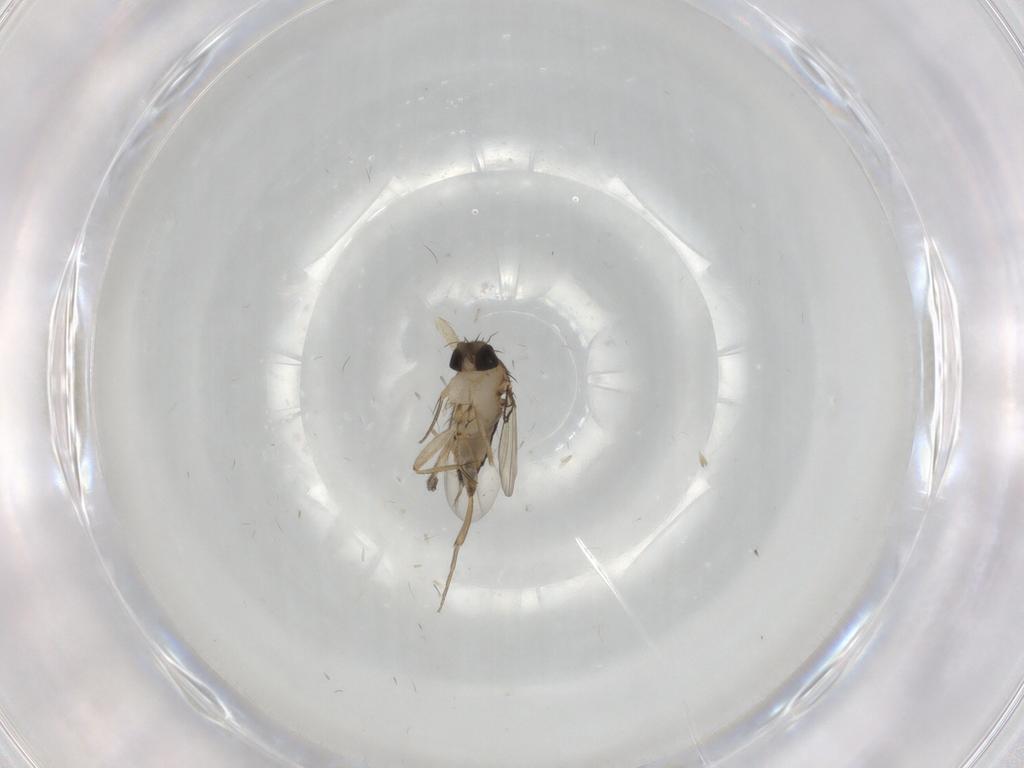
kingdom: Animalia
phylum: Arthropoda
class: Insecta
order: Diptera
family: Phoridae
